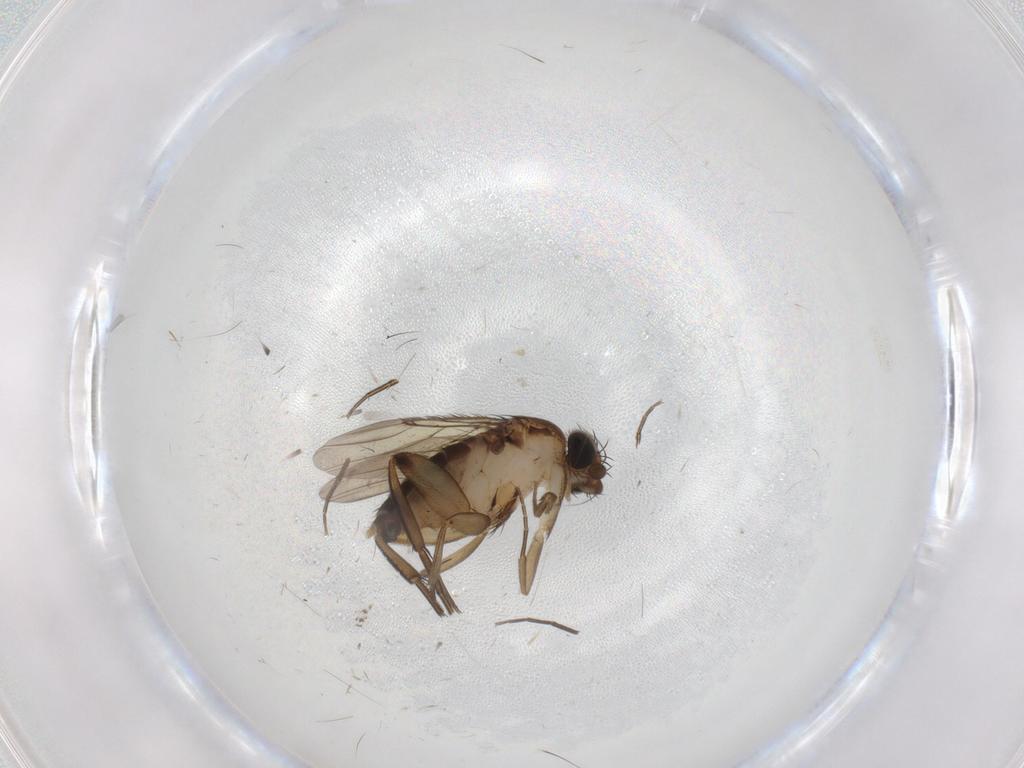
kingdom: Animalia
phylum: Arthropoda
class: Insecta
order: Diptera
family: Phoridae
